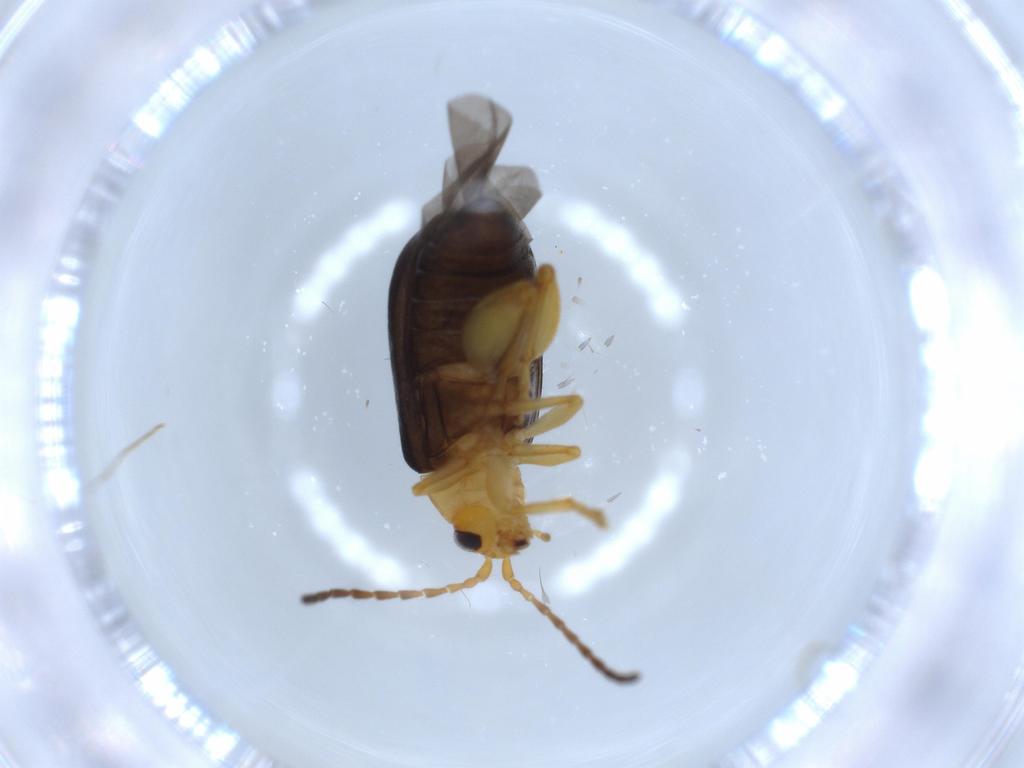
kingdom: Animalia
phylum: Arthropoda
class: Insecta
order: Coleoptera
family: Chrysomelidae
